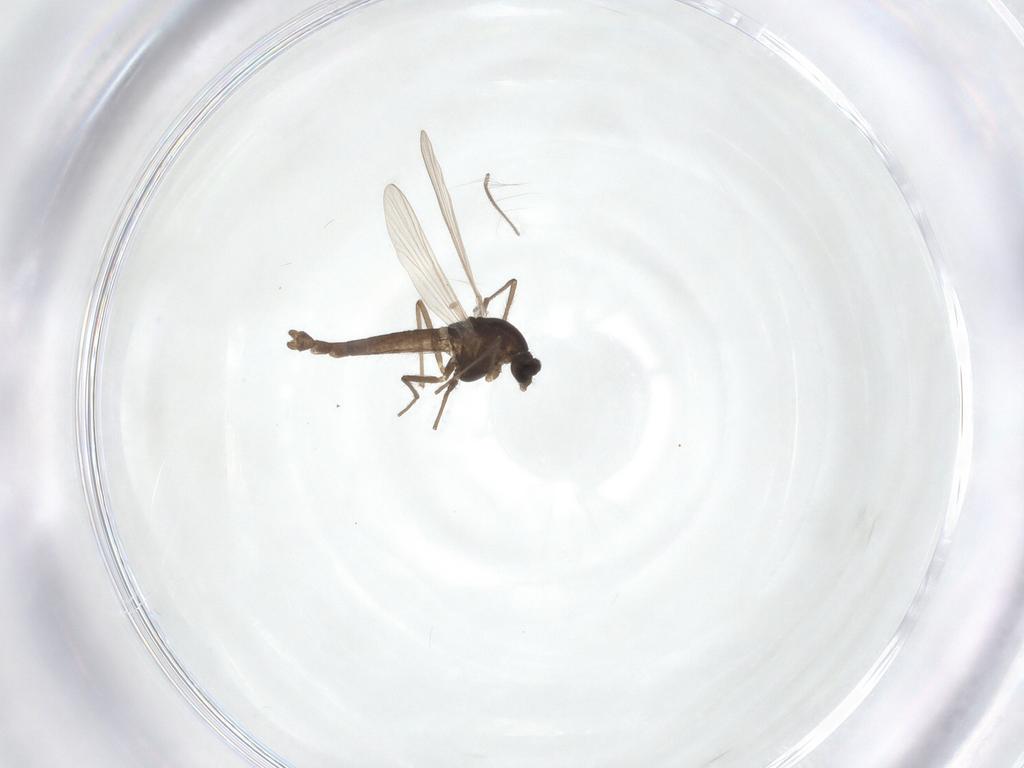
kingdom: Animalia
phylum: Arthropoda
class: Insecta
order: Diptera
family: Chironomidae
